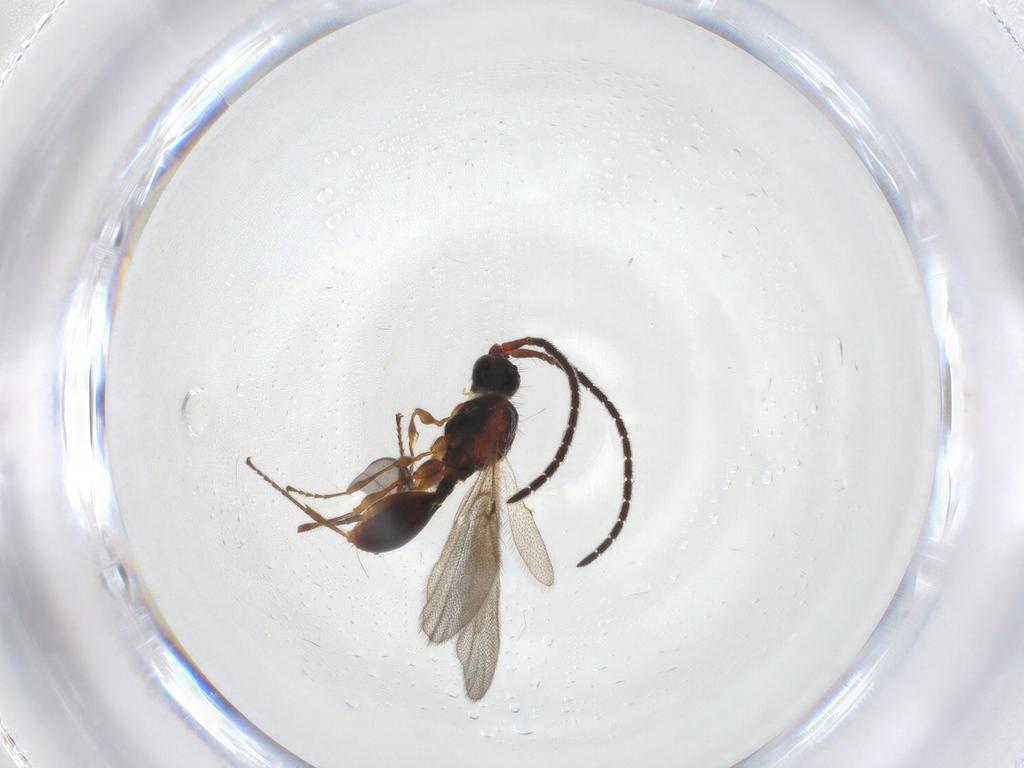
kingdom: Animalia
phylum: Arthropoda
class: Insecta
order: Hymenoptera
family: Diapriidae
